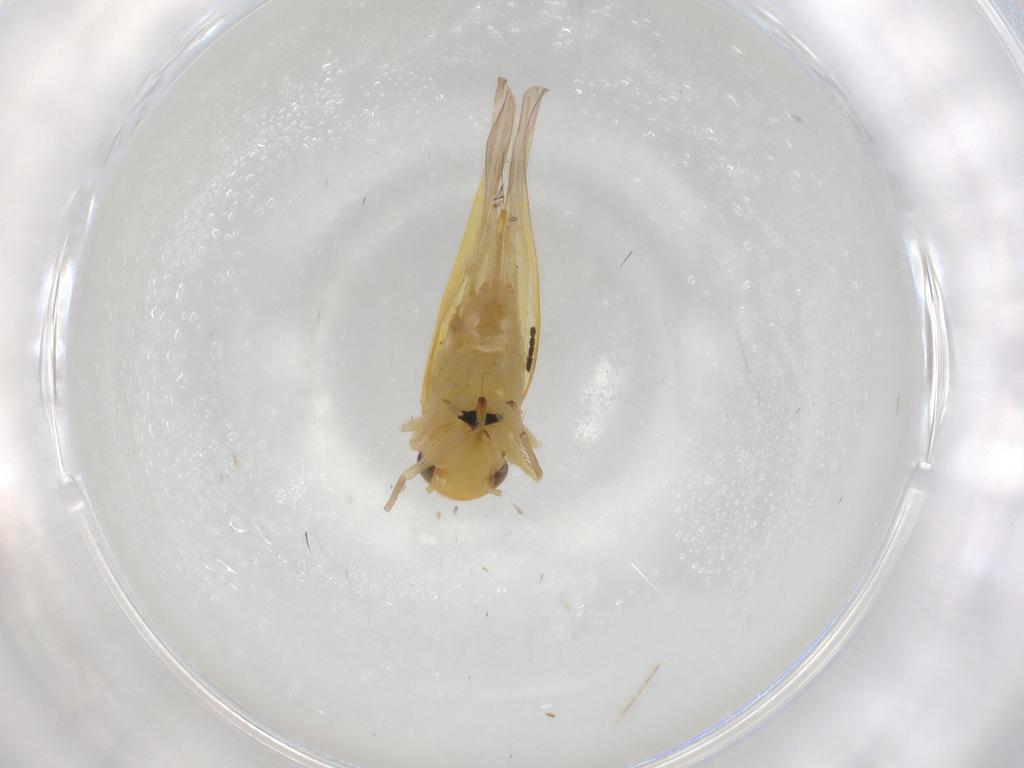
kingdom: Animalia
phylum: Arthropoda
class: Insecta
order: Hemiptera
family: Cicadellidae
